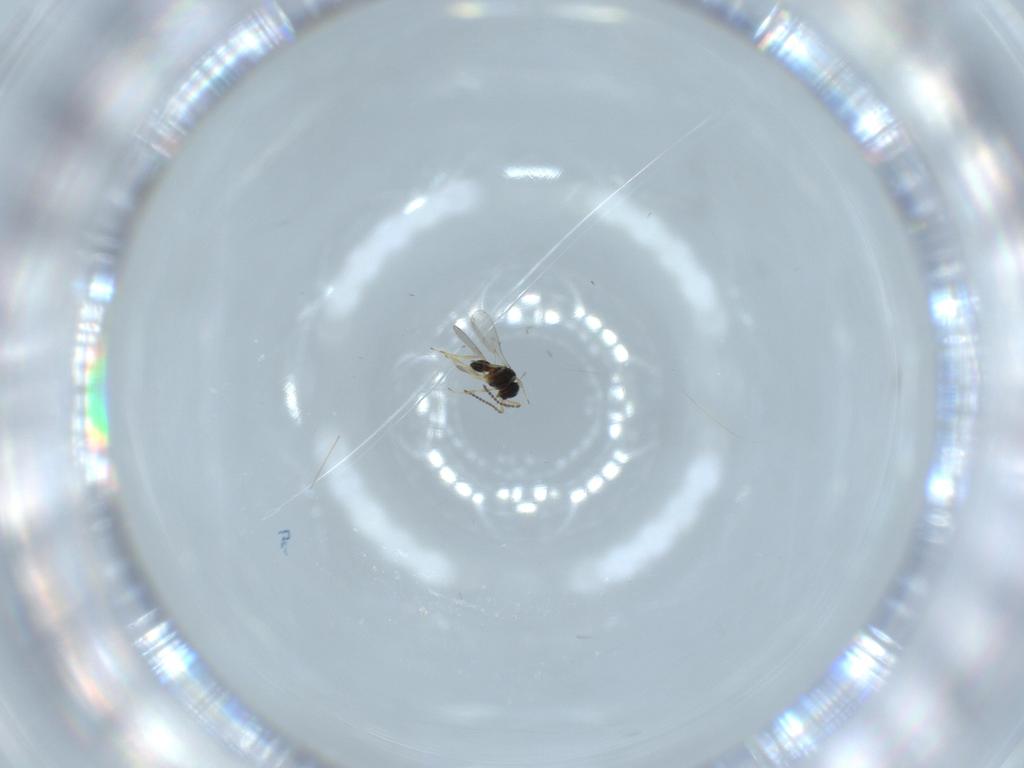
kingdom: Animalia
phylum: Arthropoda
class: Insecta
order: Hymenoptera
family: Scelionidae
